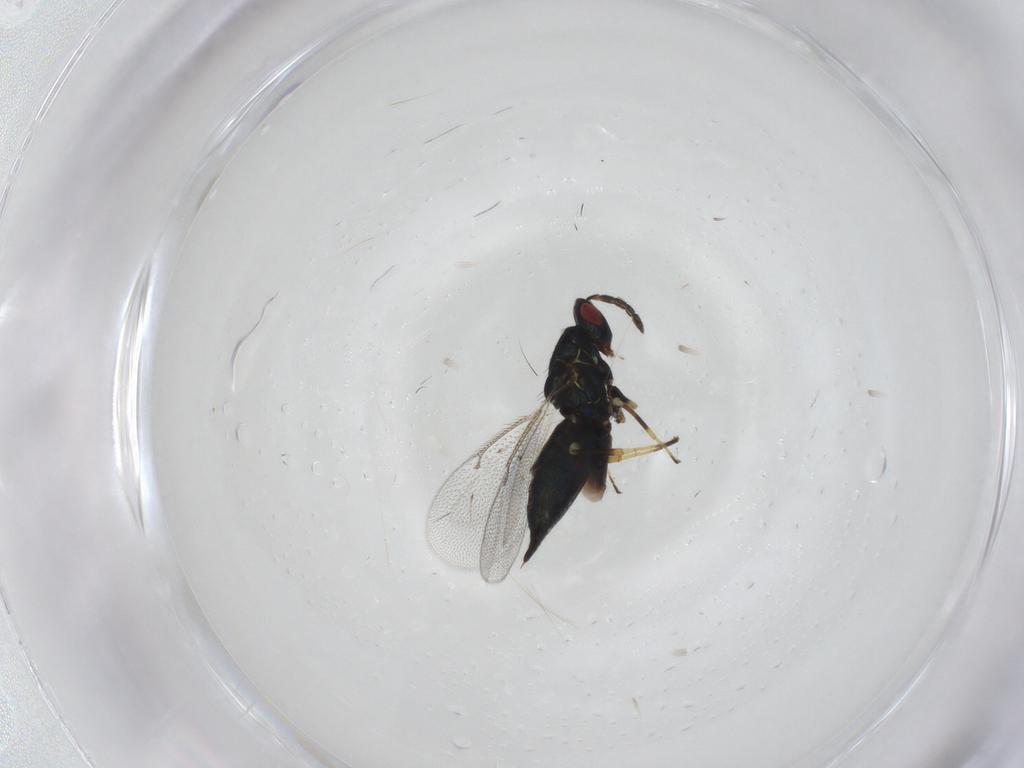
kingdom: Animalia
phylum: Arthropoda
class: Insecta
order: Hymenoptera
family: Eulophidae
